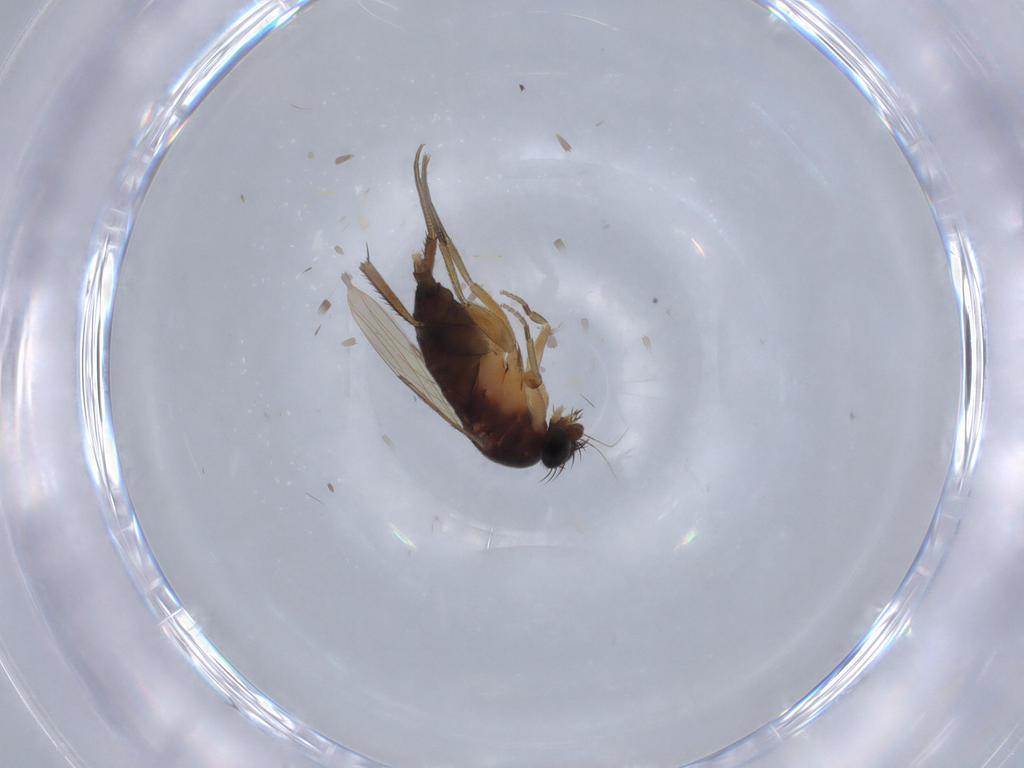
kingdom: Animalia
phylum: Arthropoda
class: Insecta
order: Diptera
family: Phoridae
